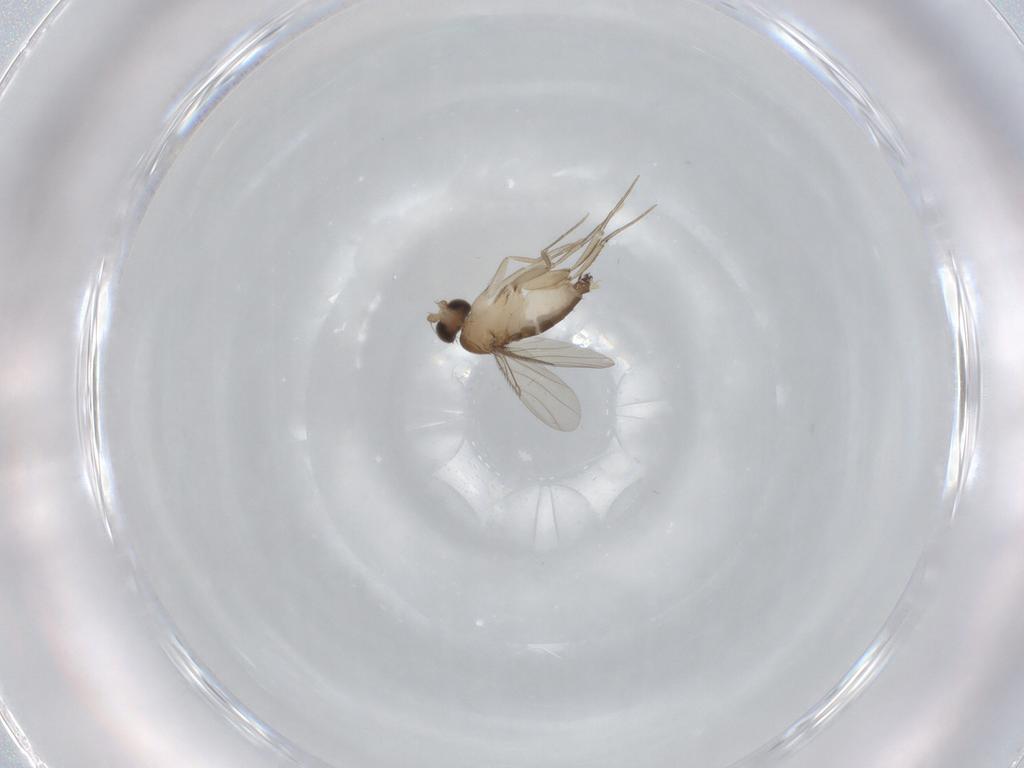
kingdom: Animalia
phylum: Arthropoda
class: Insecta
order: Diptera
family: Phoridae
